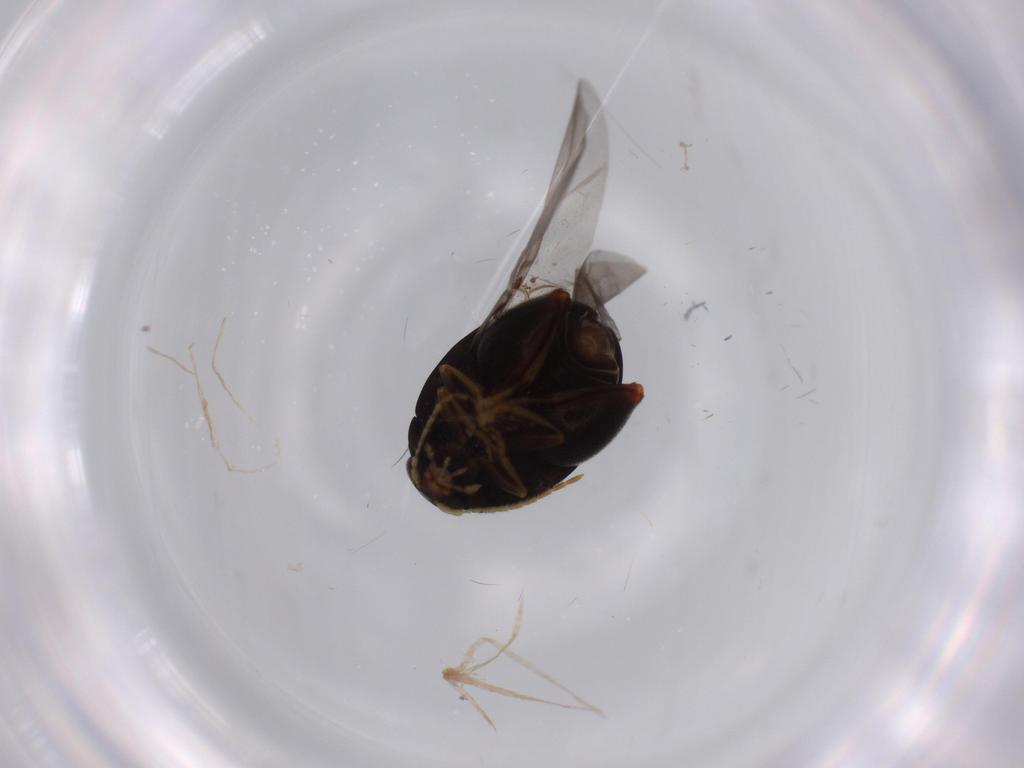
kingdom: Animalia
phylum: Arthropoda
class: Insecta
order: Coleoptera
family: Chrysomelidae
